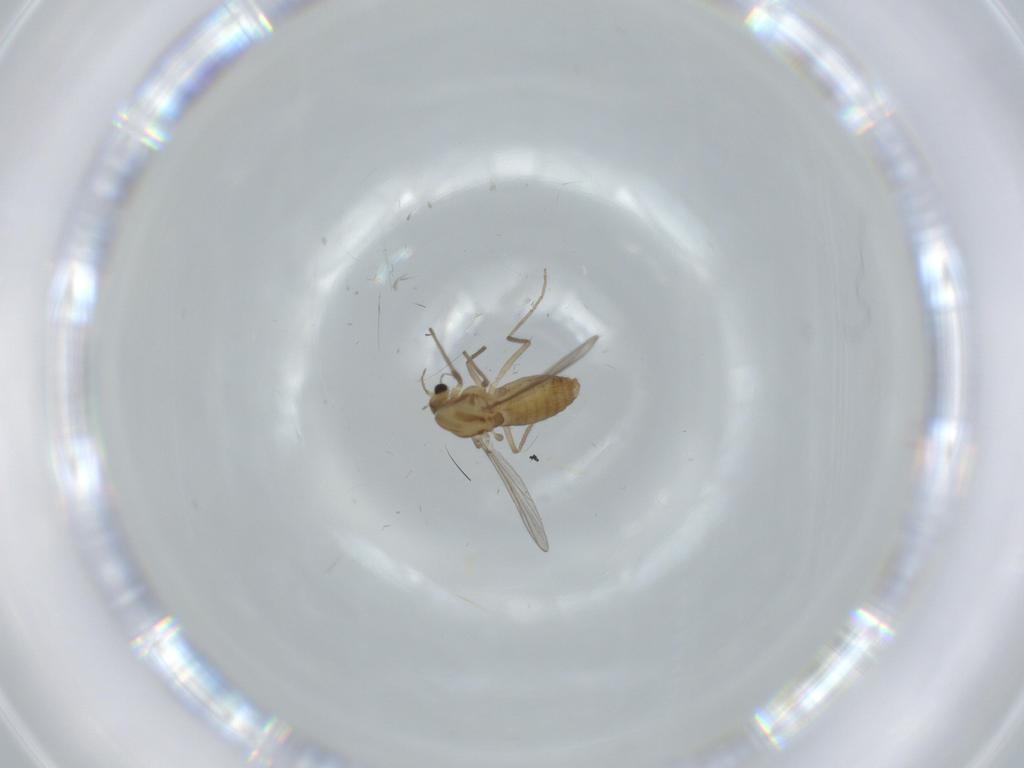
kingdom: Animalia
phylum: Arthropoda
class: Insecta
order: Diptera
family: Chironomidae
